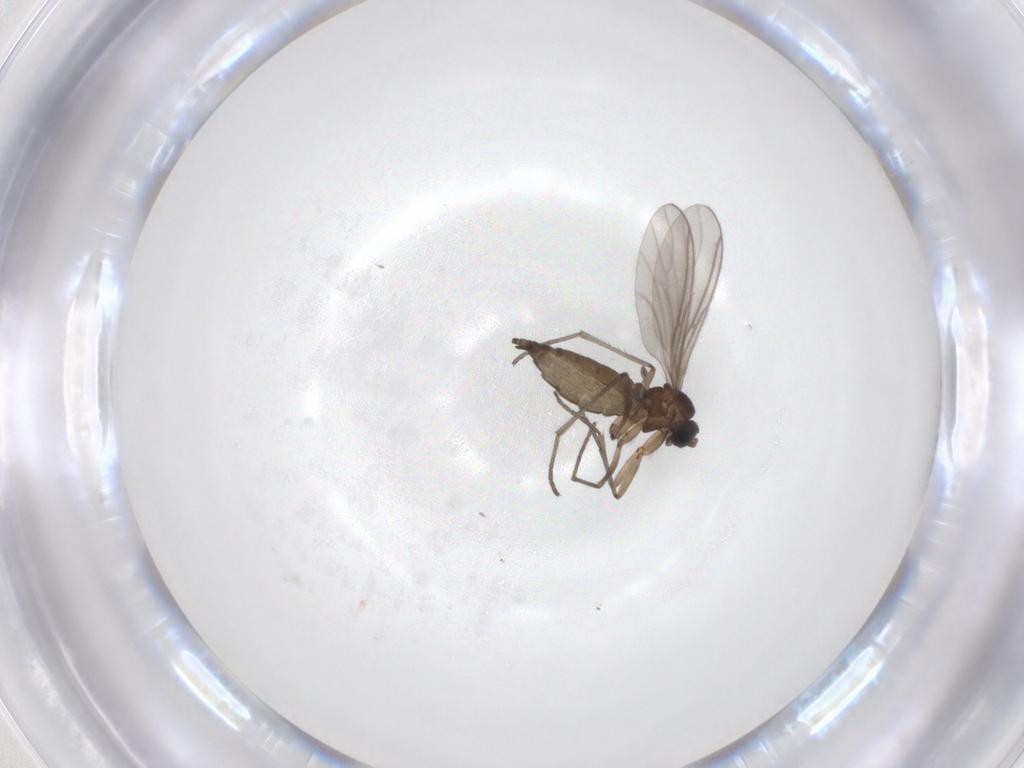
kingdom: Animalia
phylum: Arthropoda
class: Insecta
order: Diptera
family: Sciaridae
